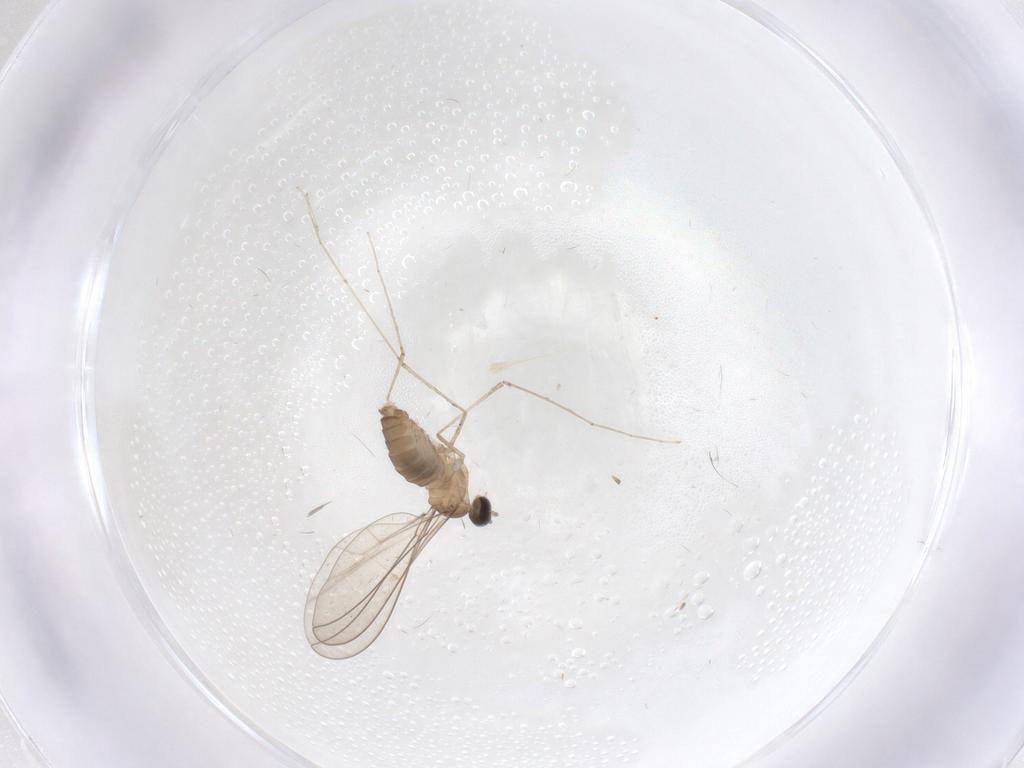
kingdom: Animalia
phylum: Arthropoda
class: Insecta
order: Diptera
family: Cecidomyiidae
